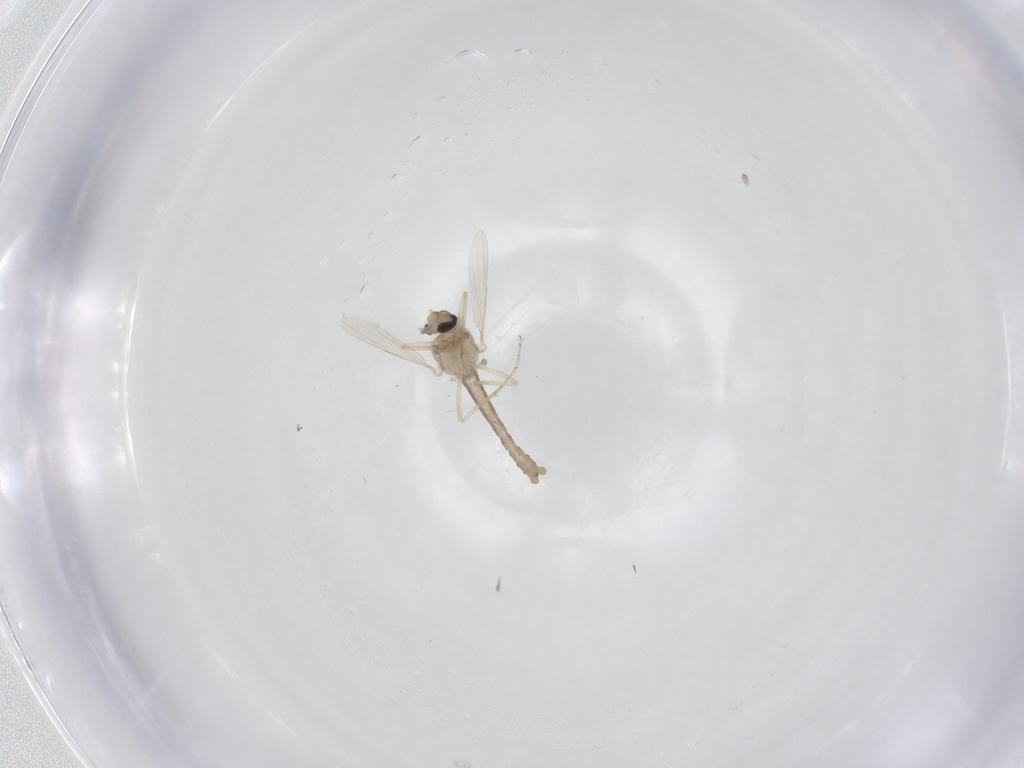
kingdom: Animalia
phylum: Arthropoda
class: Insecta
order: Diptera
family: Ceratopogonidae
